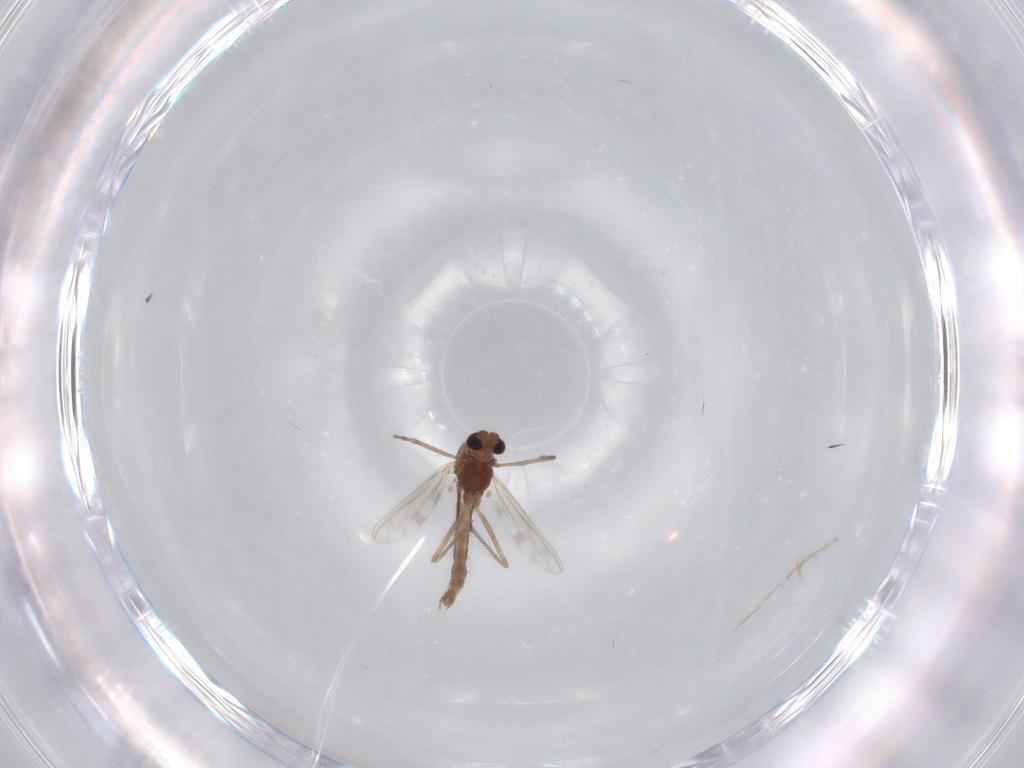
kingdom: Animalia
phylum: Arthropoda
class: Insecta
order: Diptera
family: Chironomidae
